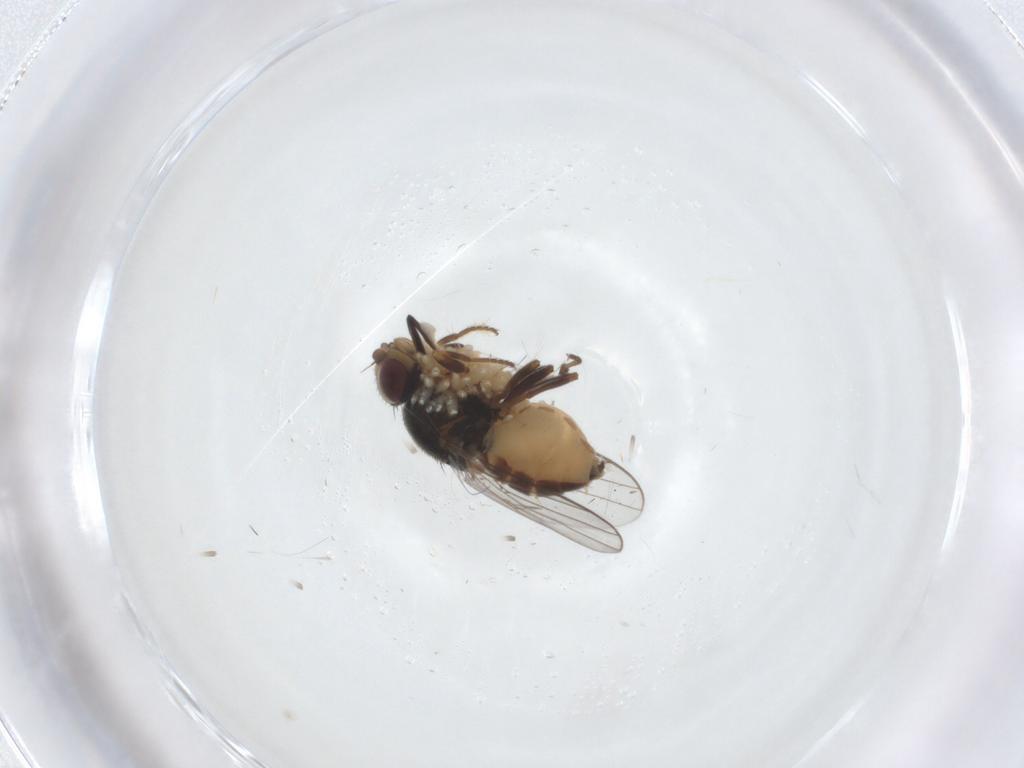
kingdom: Animalia
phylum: Arthropoda
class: Insecta
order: Diptera
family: Chloropidae
